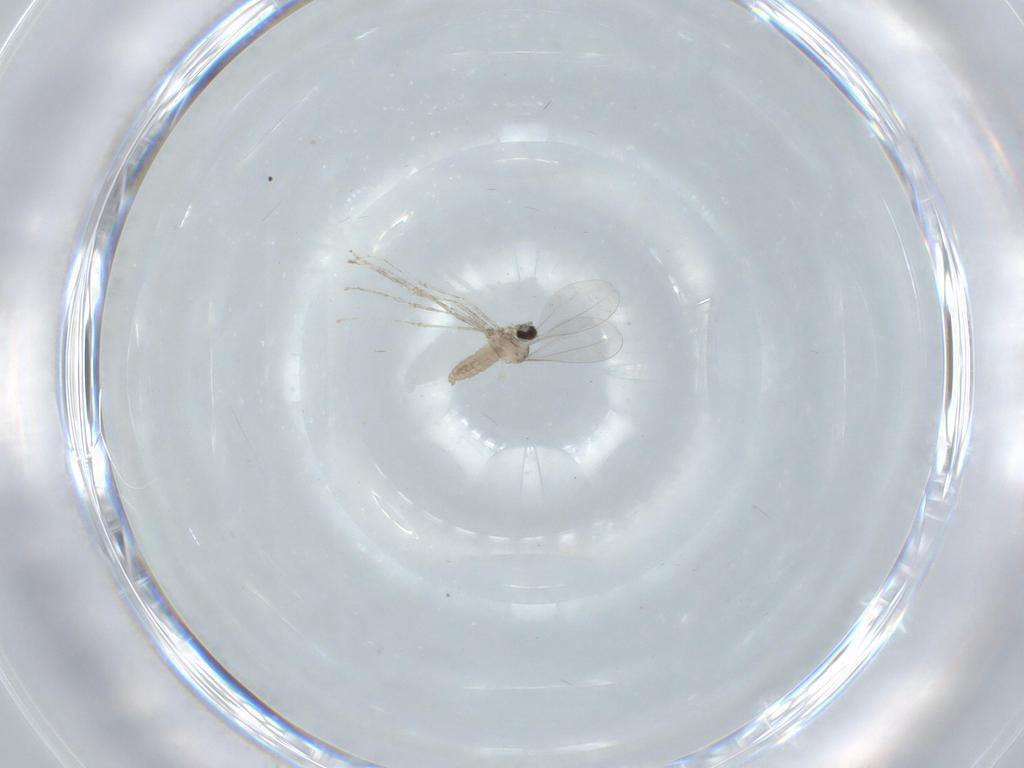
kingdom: Animalia
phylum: Arthropoda
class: Insecta
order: Diptera
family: Cecidomyiidae
